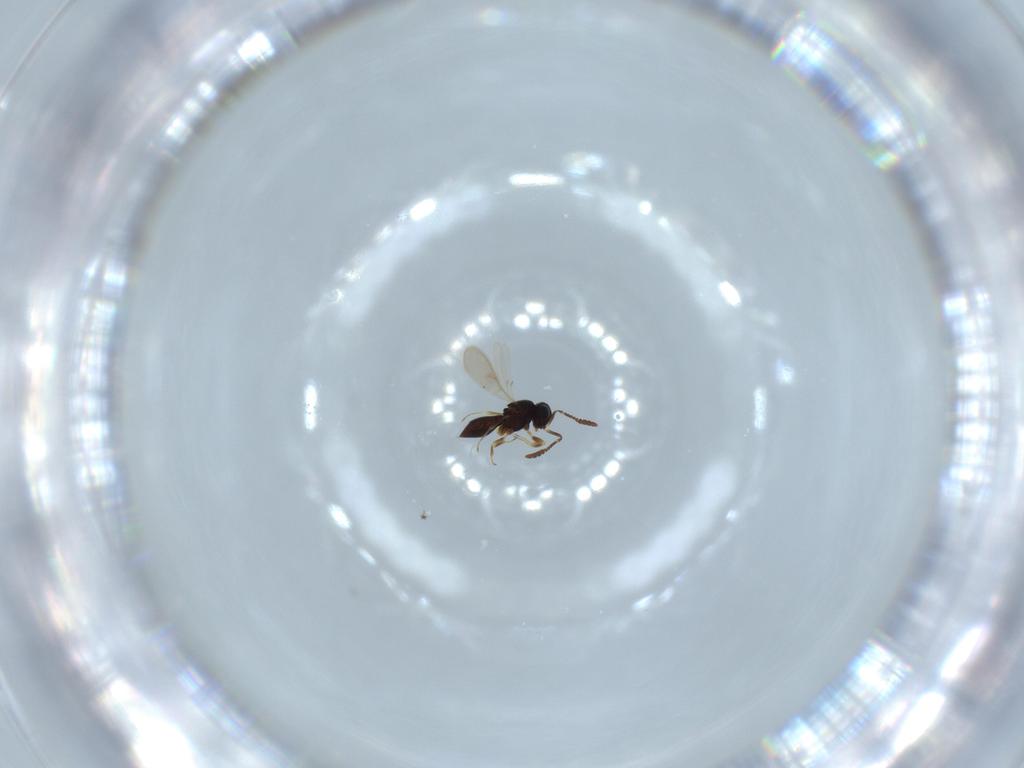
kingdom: Animalia
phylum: Arthropoda
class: Insecta
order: Hymenoptera
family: Scelionidae
